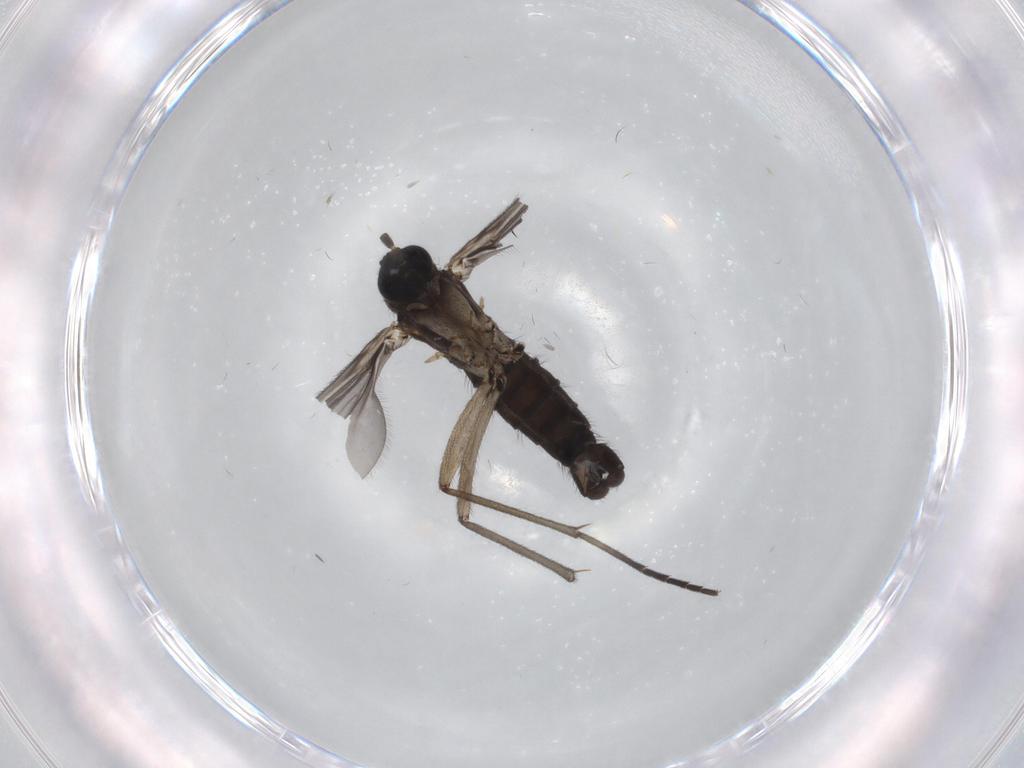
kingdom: Animalia
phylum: Arthropoda
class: Insecta
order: Diptera
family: Sciaridae
